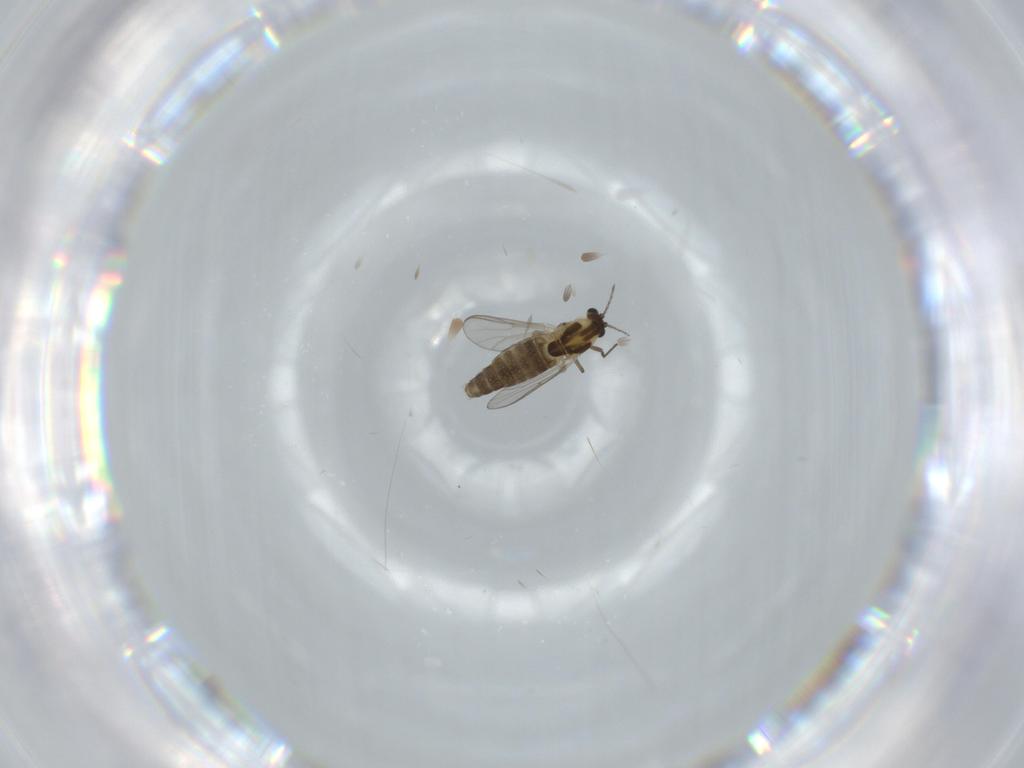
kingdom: Animalia
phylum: Arthropoda
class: Insecta
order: Diptera
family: Chironomidae
